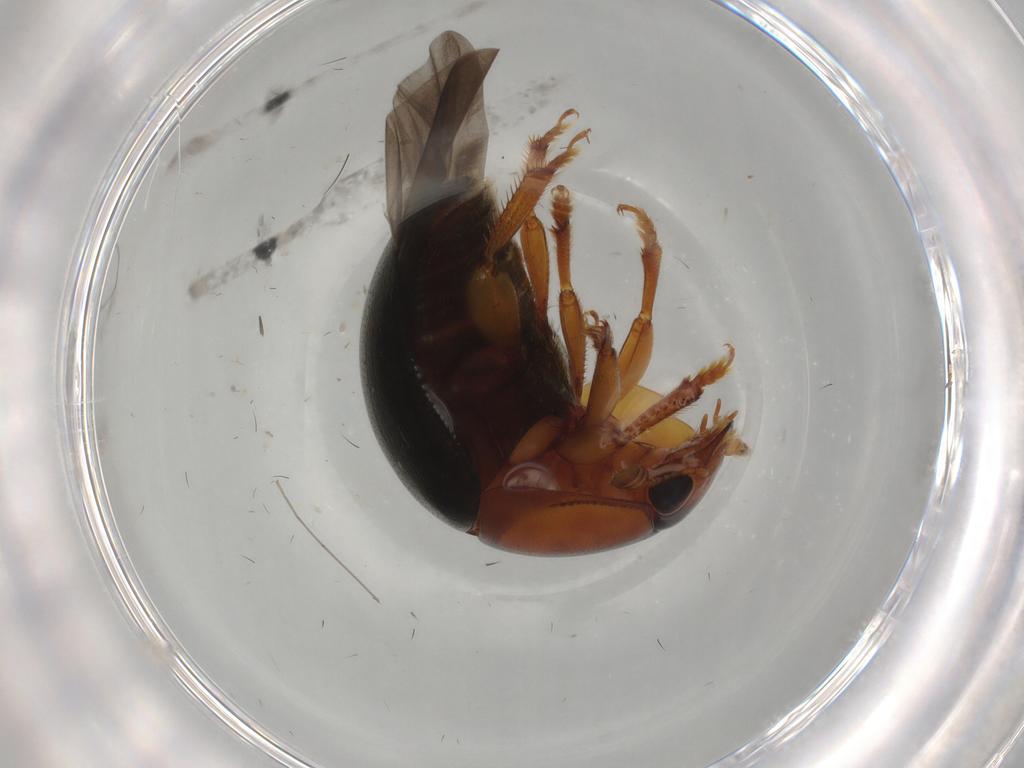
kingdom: Animalia
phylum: Arthropoda
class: Insecta
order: Coleoptera
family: Nitidulidae
